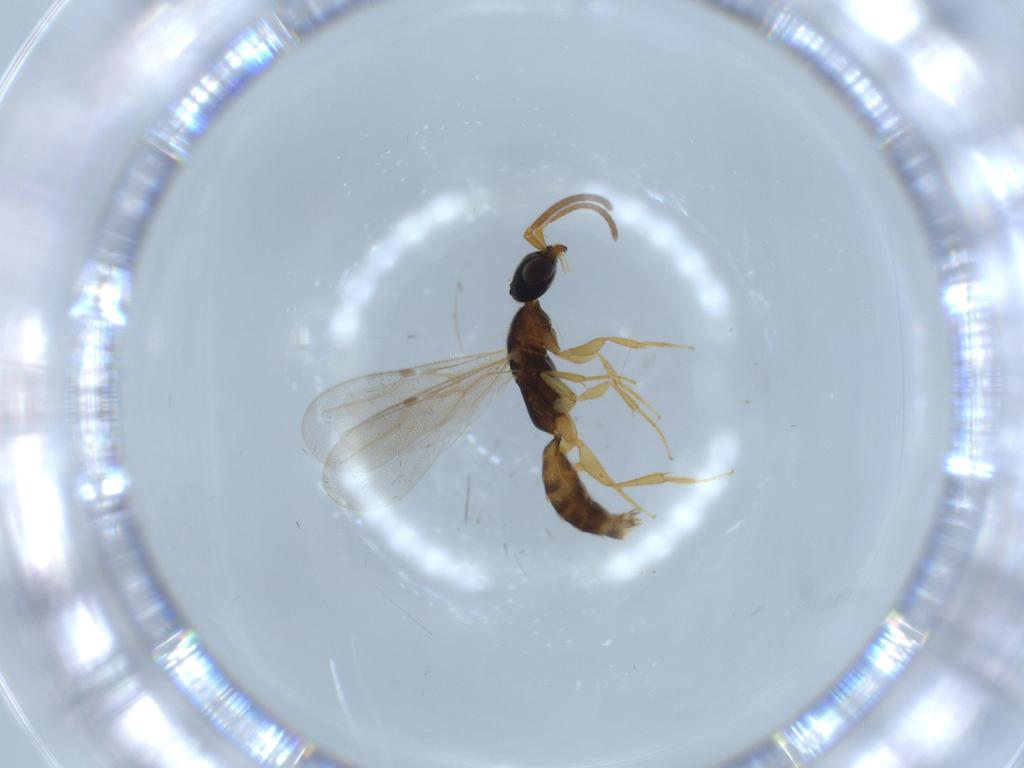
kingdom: Animalia
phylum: Arthropoda
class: Insecta
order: Hymenoptera
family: Bethylidae
